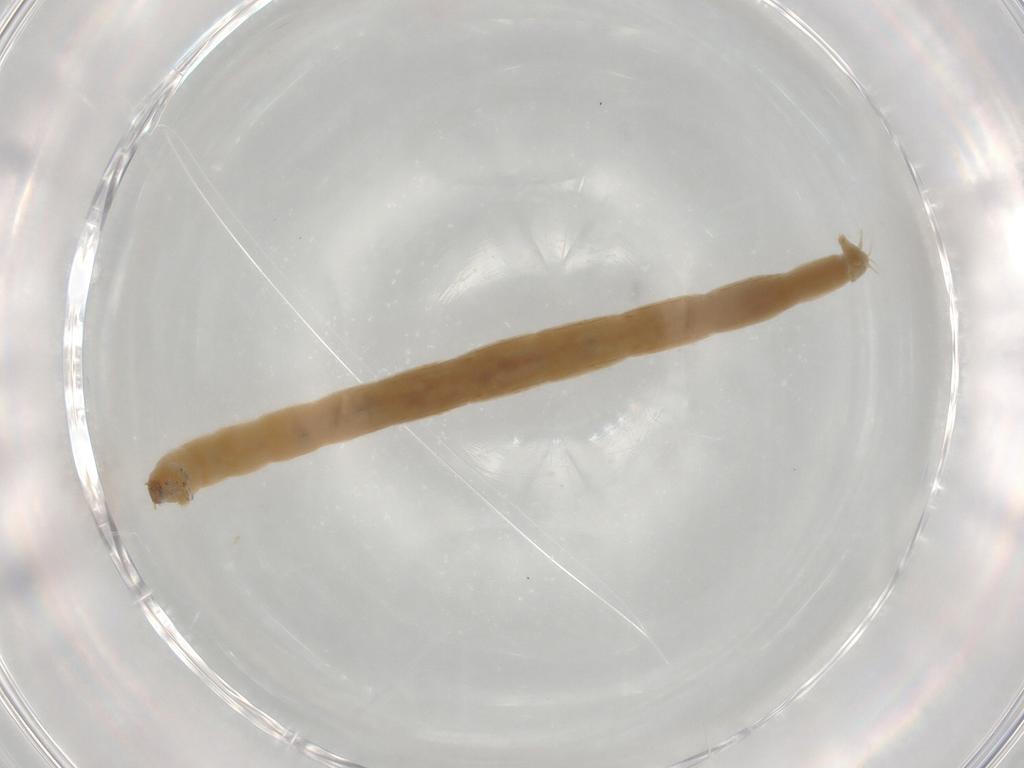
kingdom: Animalia
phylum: Arthropoda
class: Insecta
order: Diptera
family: Chironomidae
